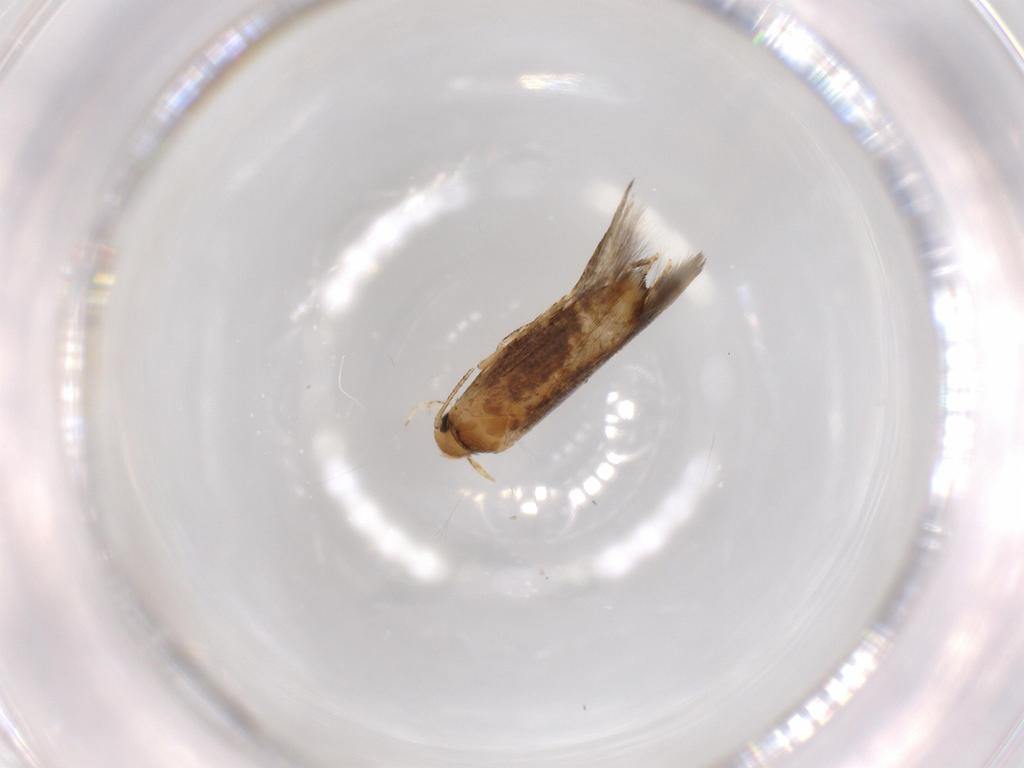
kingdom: Animalia
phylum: Arthropoda
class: Insecta
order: Lepidoptera
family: Momphidae
